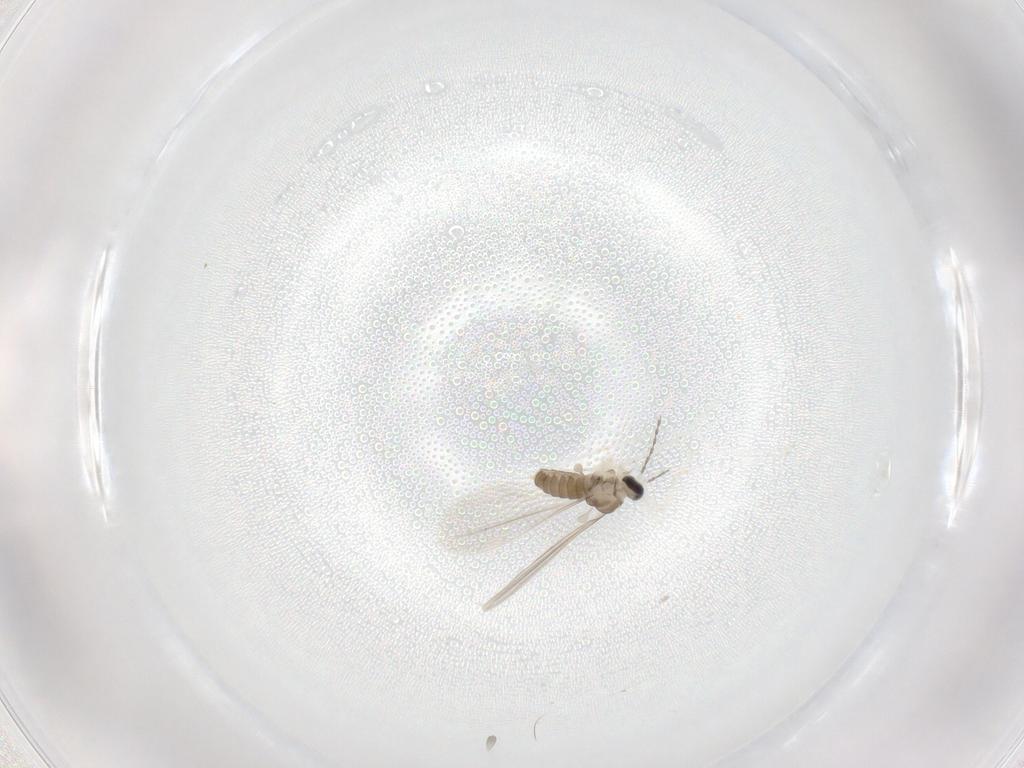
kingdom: Animalia
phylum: Arthropoda
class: Insecta
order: Diptera
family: Cecidomyiidae
